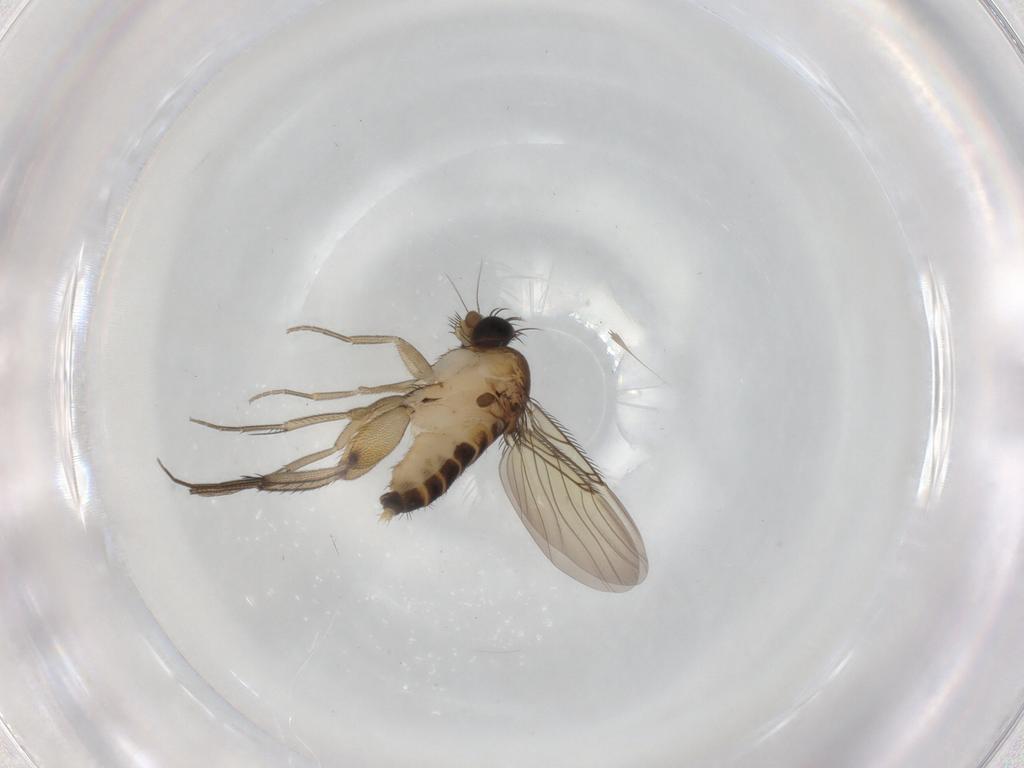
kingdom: Animalia
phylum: Arthropoda
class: Insecta
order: Diptera
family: Phoridae
